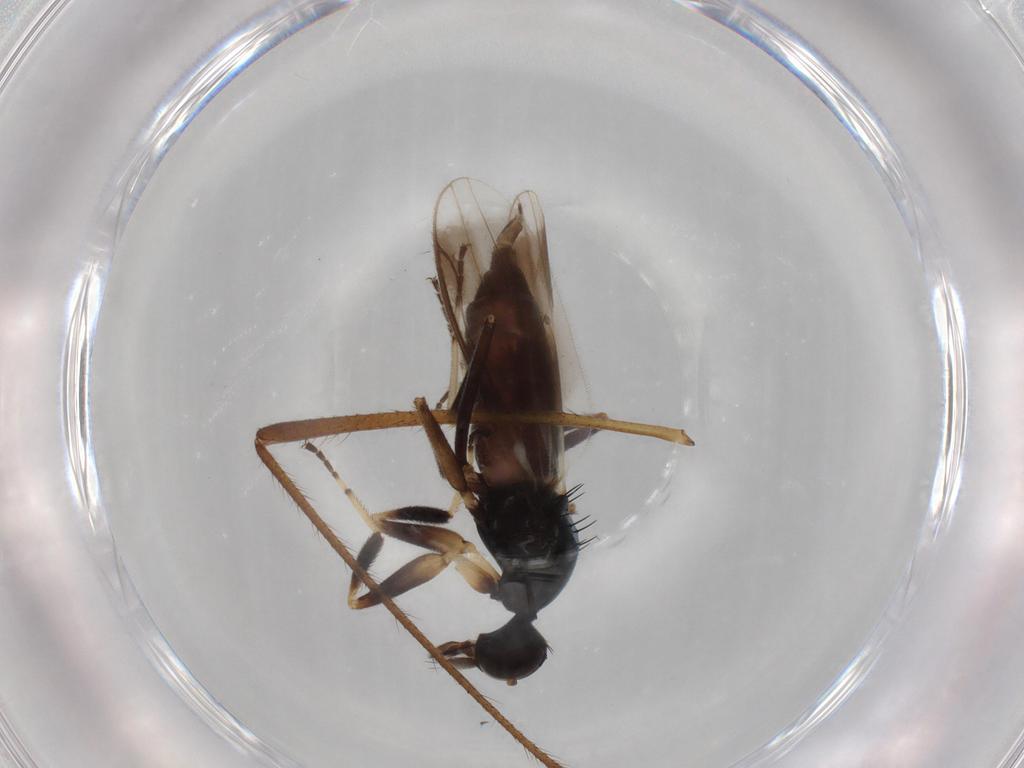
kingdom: Animalia
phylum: Arthropoda
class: Insecta
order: Diptera
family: Hybotidae
